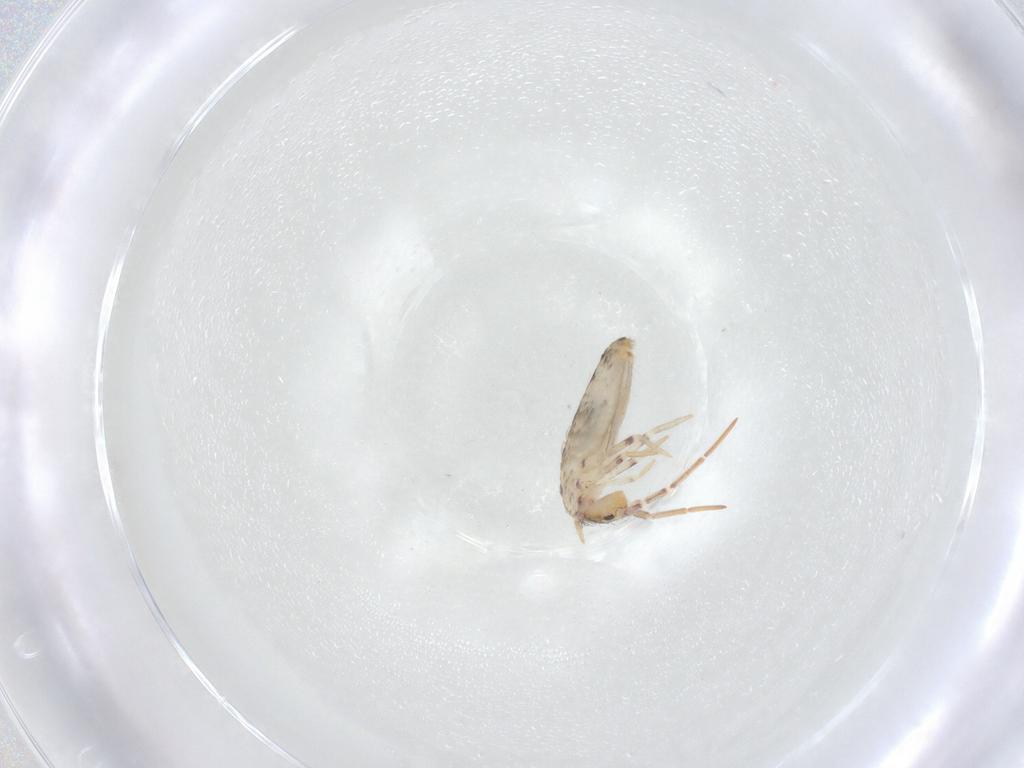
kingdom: Animalia
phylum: Arthropoda
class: Collembola
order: Entomobryomorpha
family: Entomobryidae
